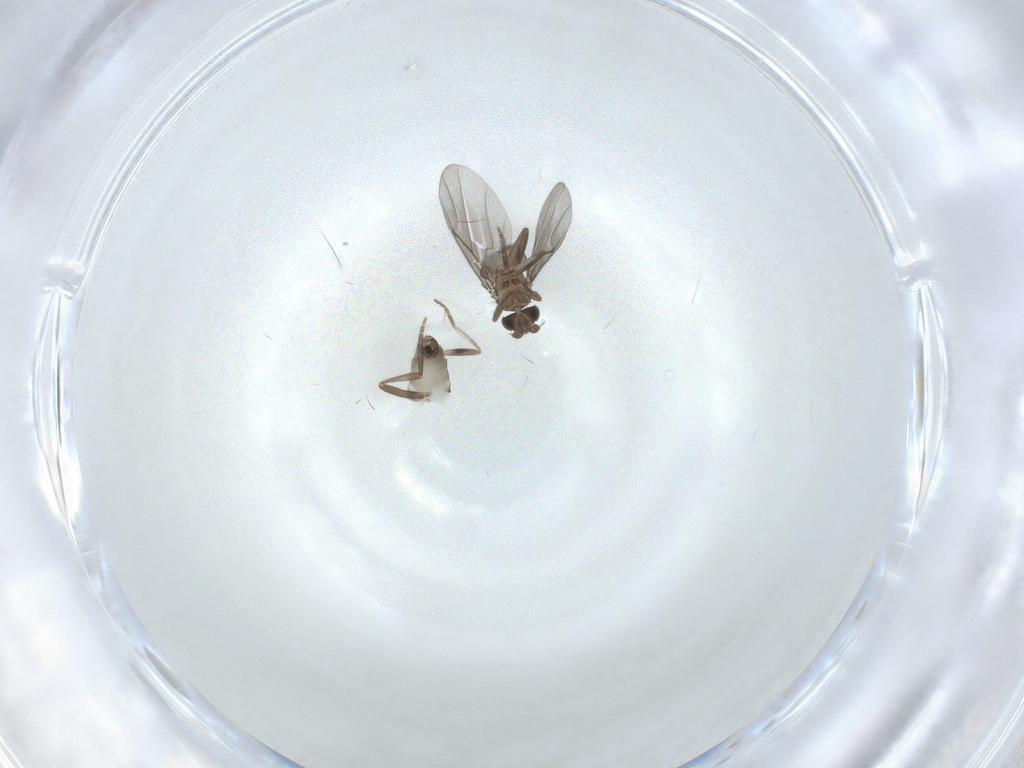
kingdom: Animalia
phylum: Arthropoda
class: Insecta
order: Diptera
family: Phoridae
